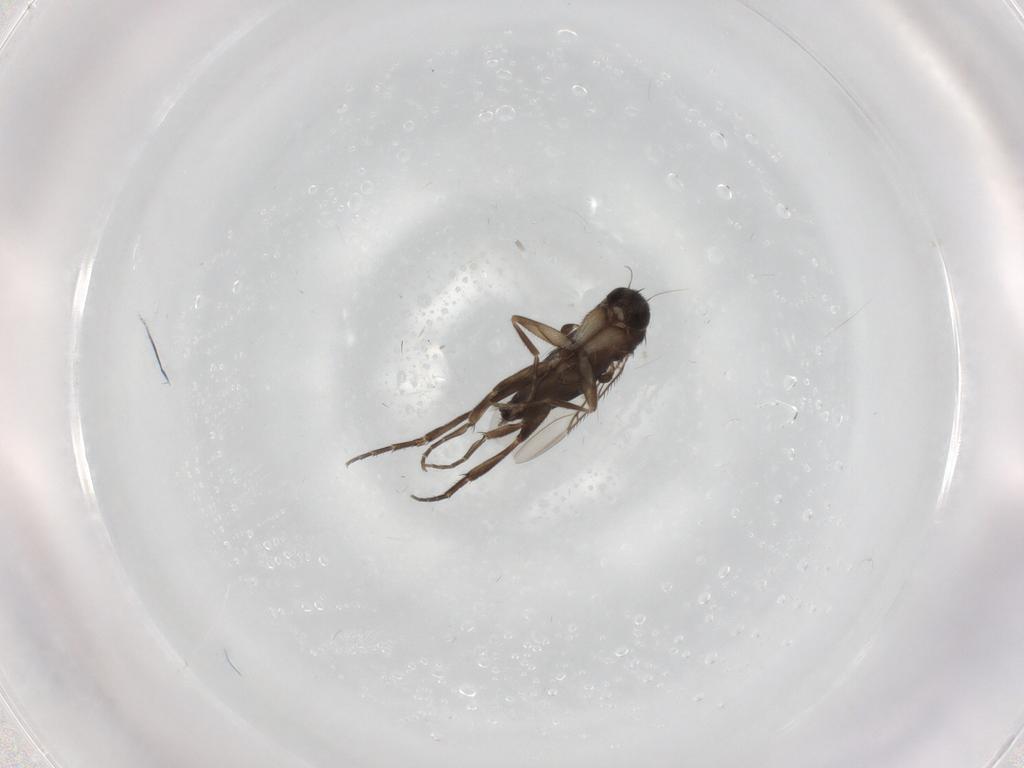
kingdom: Animalia
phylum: Arthropoda
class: Insecta
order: Diptera
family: Phoridae
